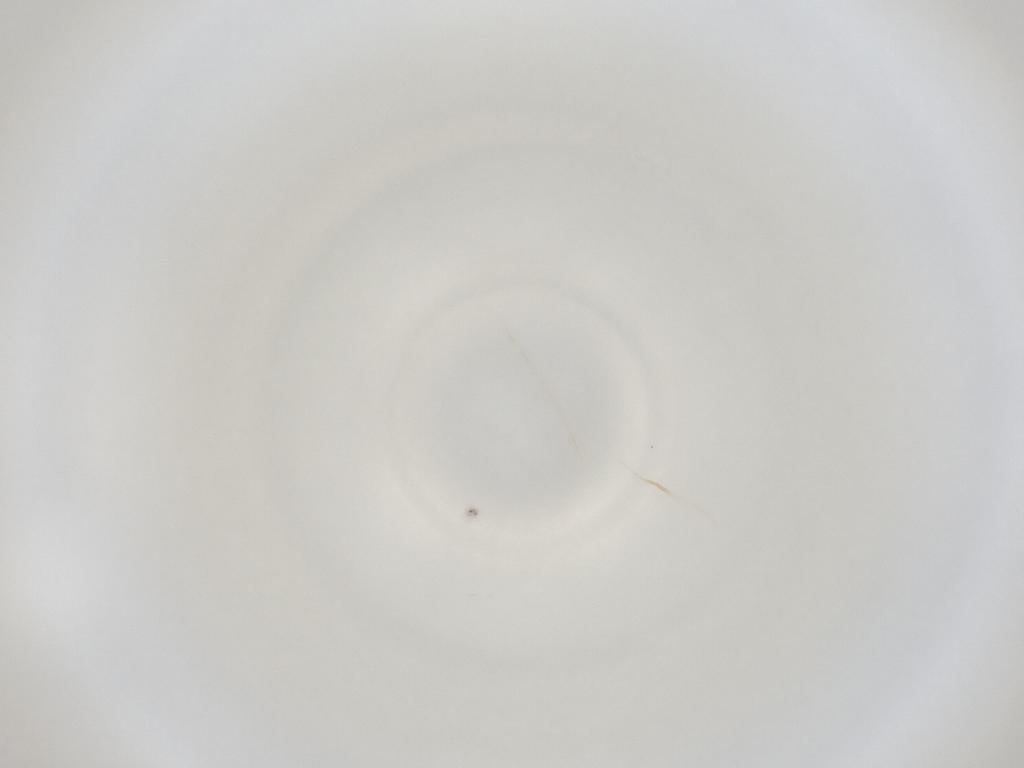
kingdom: Animalia
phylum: Arthropoda
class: Insecta
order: Diptera
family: Cecidomyiidae
